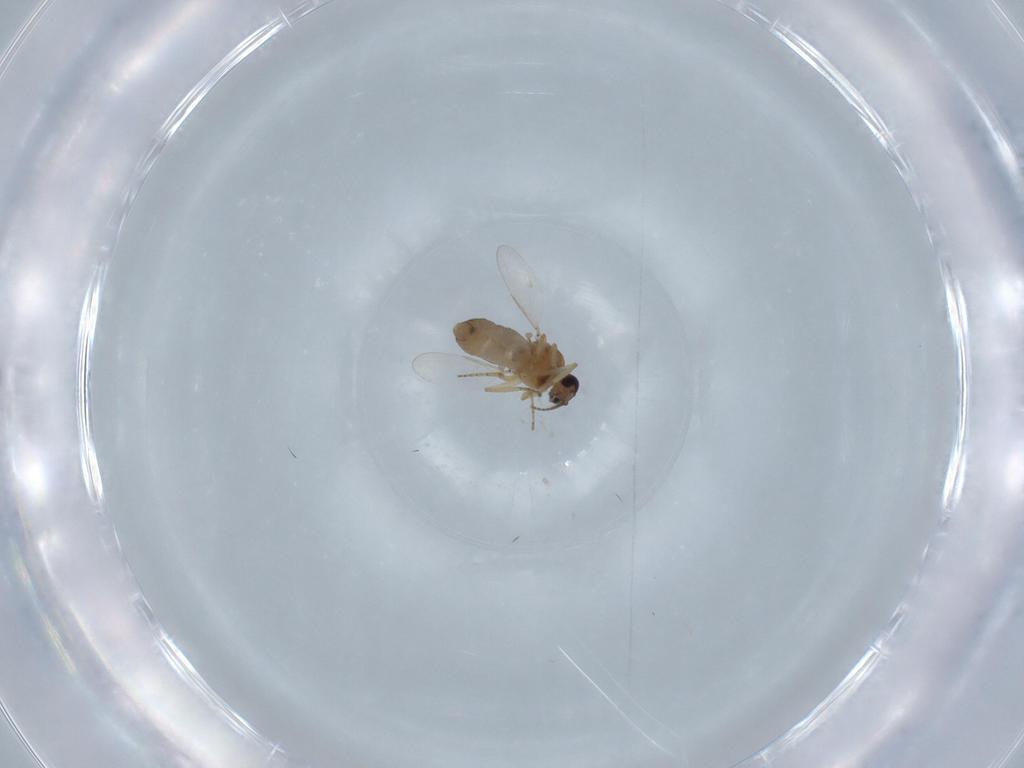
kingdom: Animalia
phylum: Arthropoda
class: Insecta
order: Diptera
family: Ceratopogonidae
